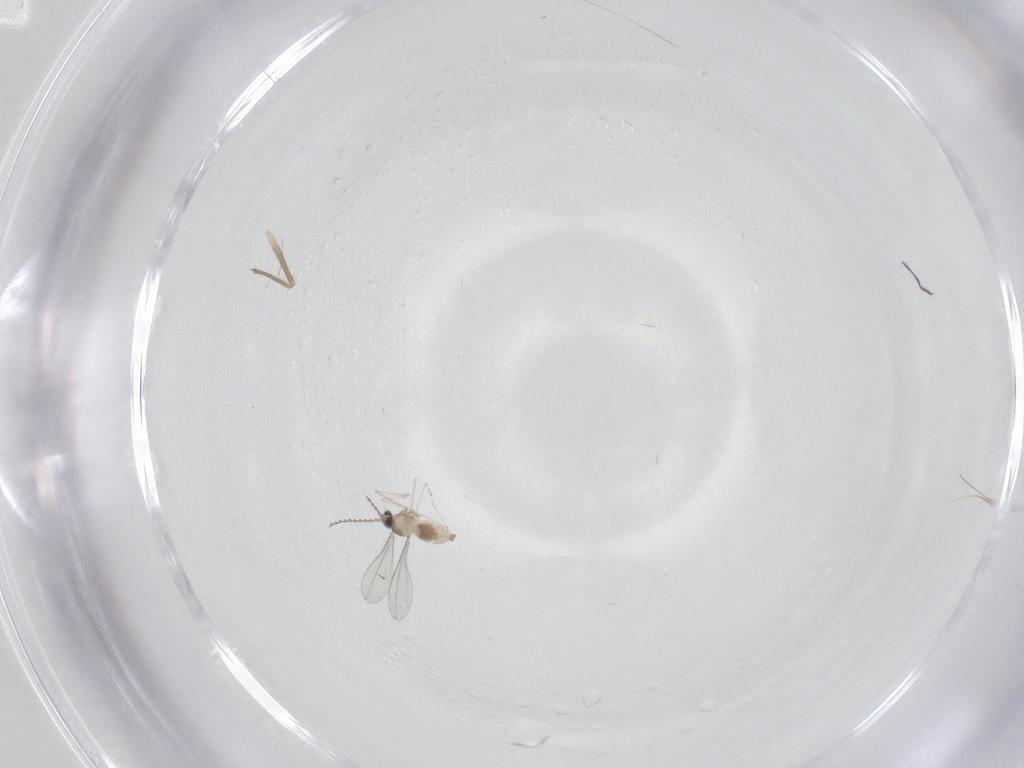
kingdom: Animalia
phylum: Arthropoda
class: Insecta
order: Diptera
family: Cecidomyiidae
